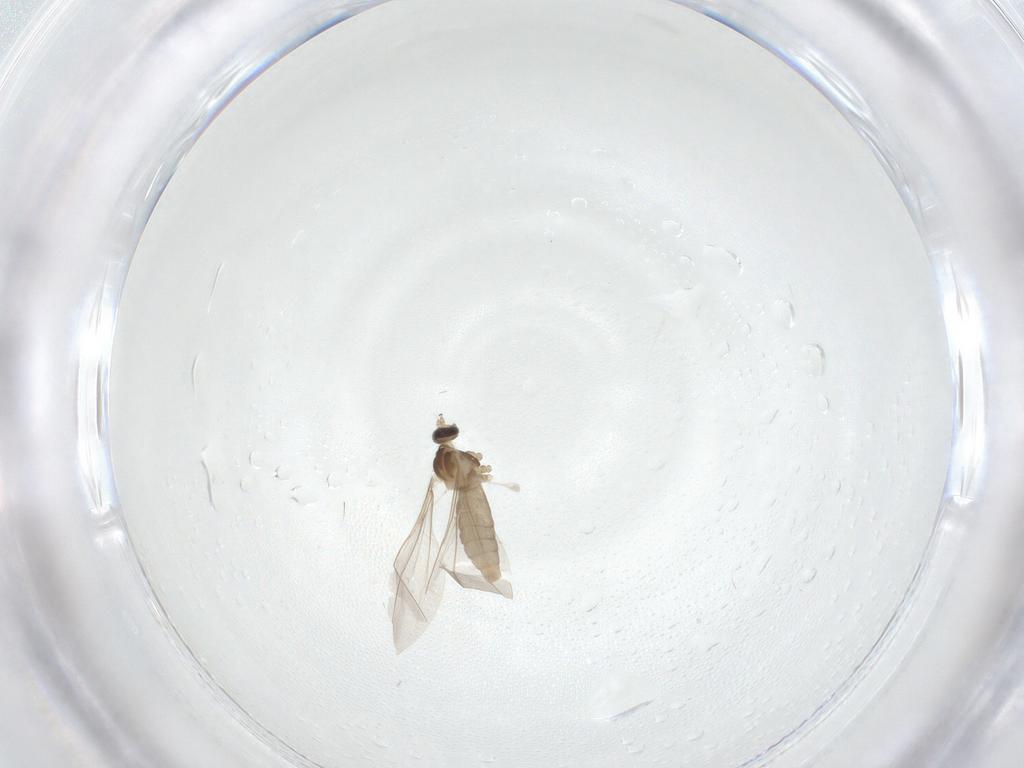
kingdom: Animalia
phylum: Arthropoda
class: Insecta
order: Diptera
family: Cecidomyiidae
